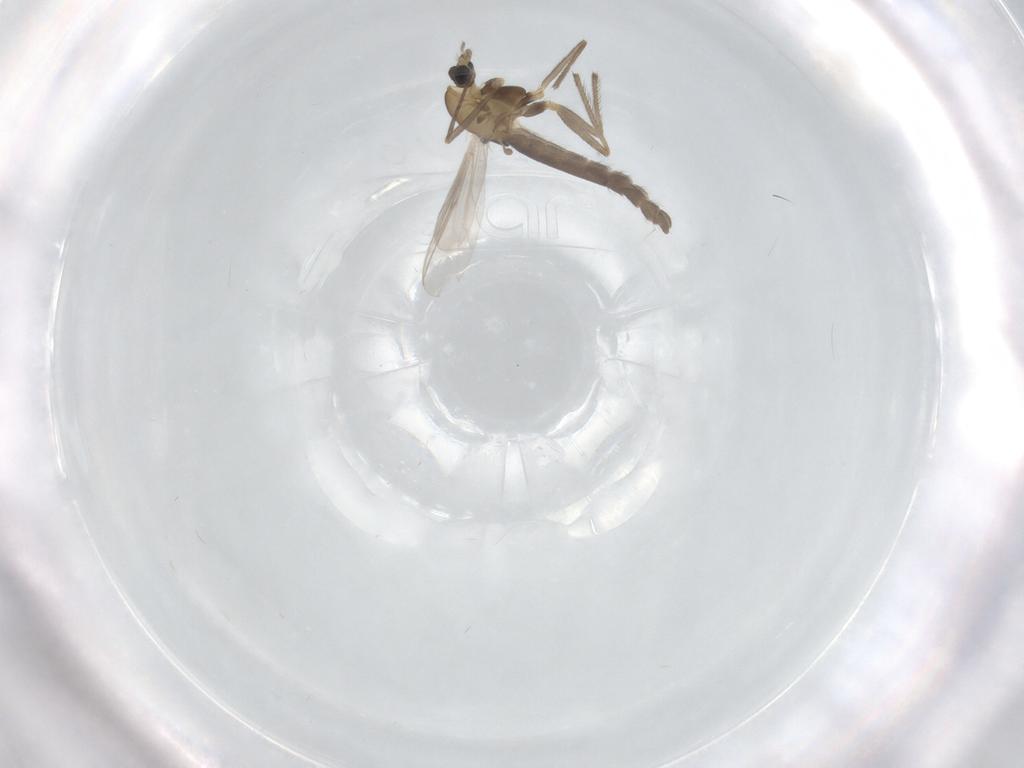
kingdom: Animalia
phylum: Arthropoda
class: Insecta
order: Diptera
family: Chironomidae
